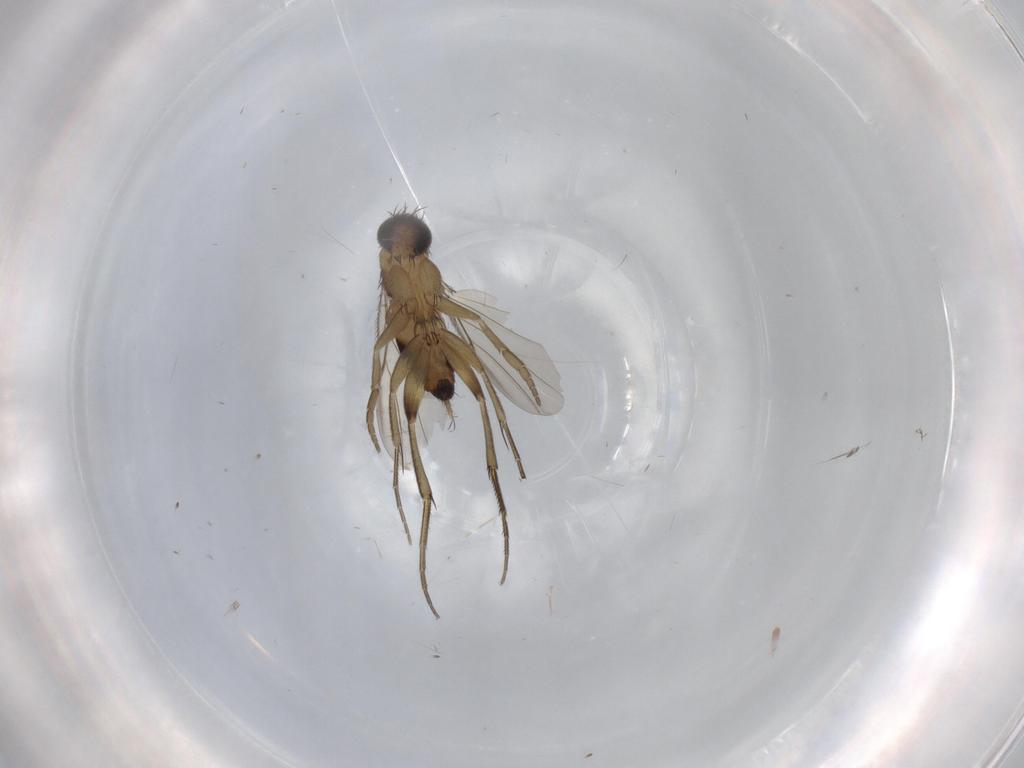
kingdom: Animalia
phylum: Arthropoda
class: Insecta
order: Diptera
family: Phoridae
